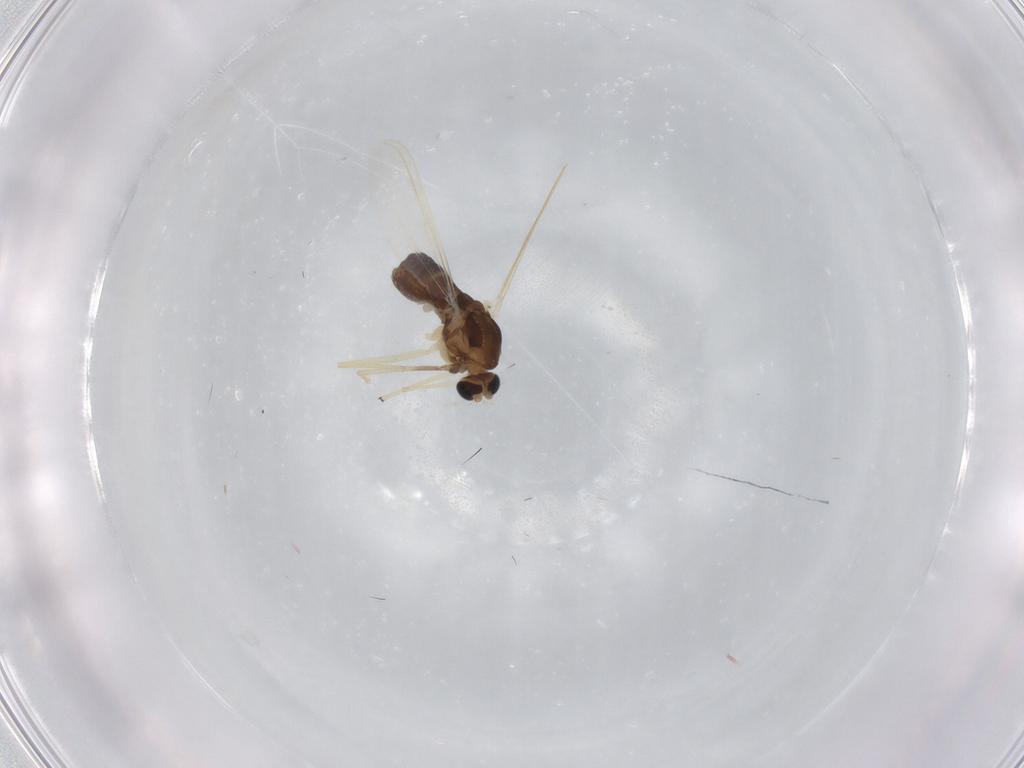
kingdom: Animalia
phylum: Arthropoda
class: Insecta
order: Diptera
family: Chironomidae
